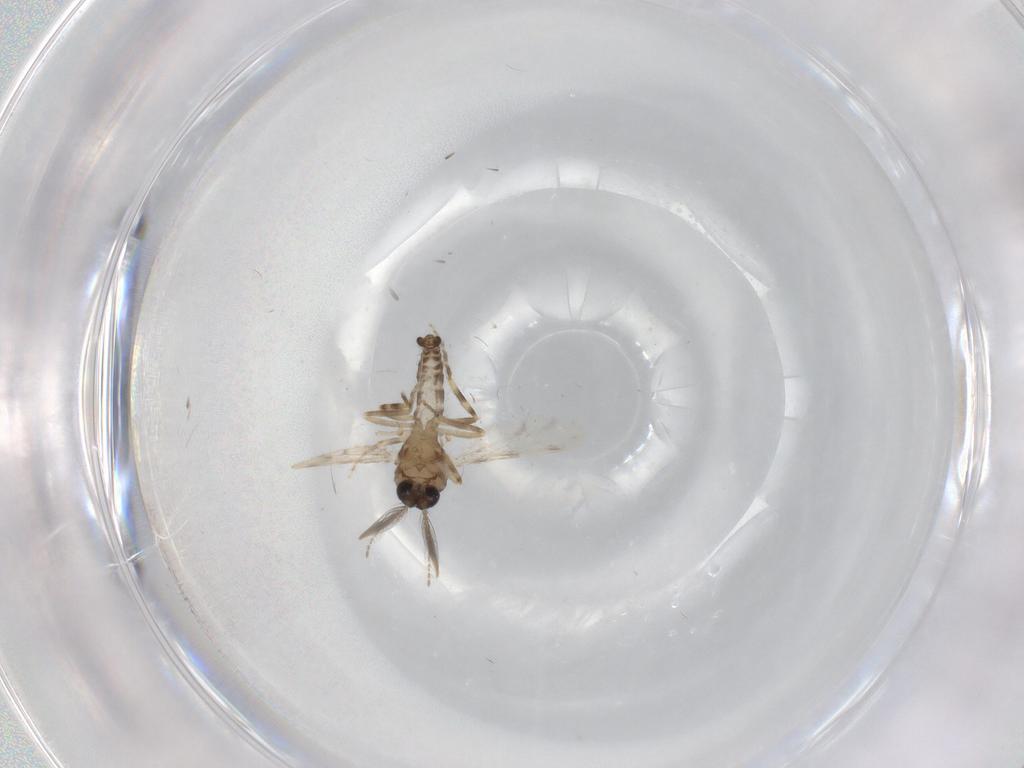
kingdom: Animalia
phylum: Arthropoda
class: Insecta
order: Diptera
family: Ceratopogonidae
